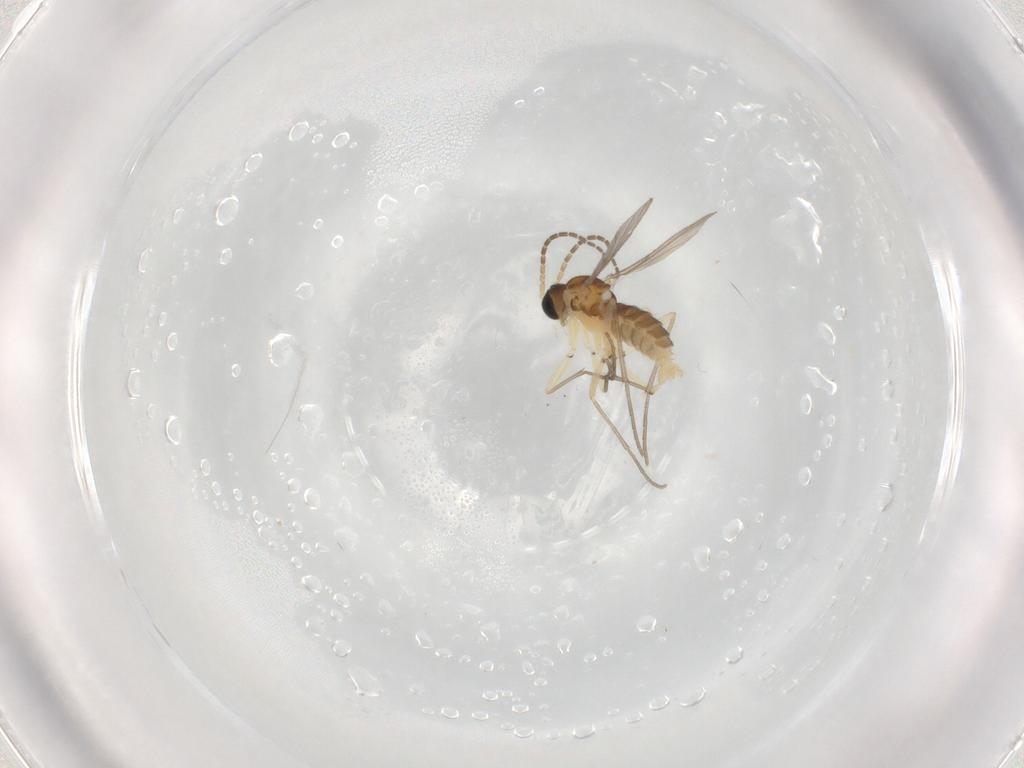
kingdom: Animalia
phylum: Arthropoda
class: Insecta
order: Diptera
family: Sciaridae
